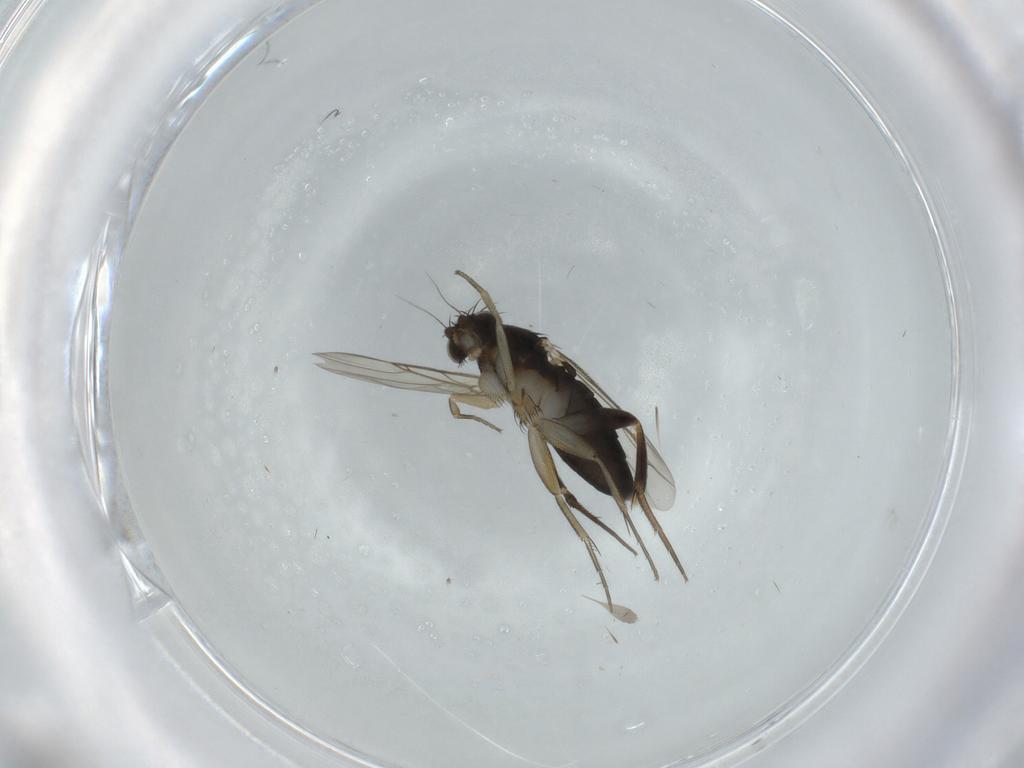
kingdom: Animalia
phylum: Arthropoda
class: Insecta
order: Diptera
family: Phoridae
